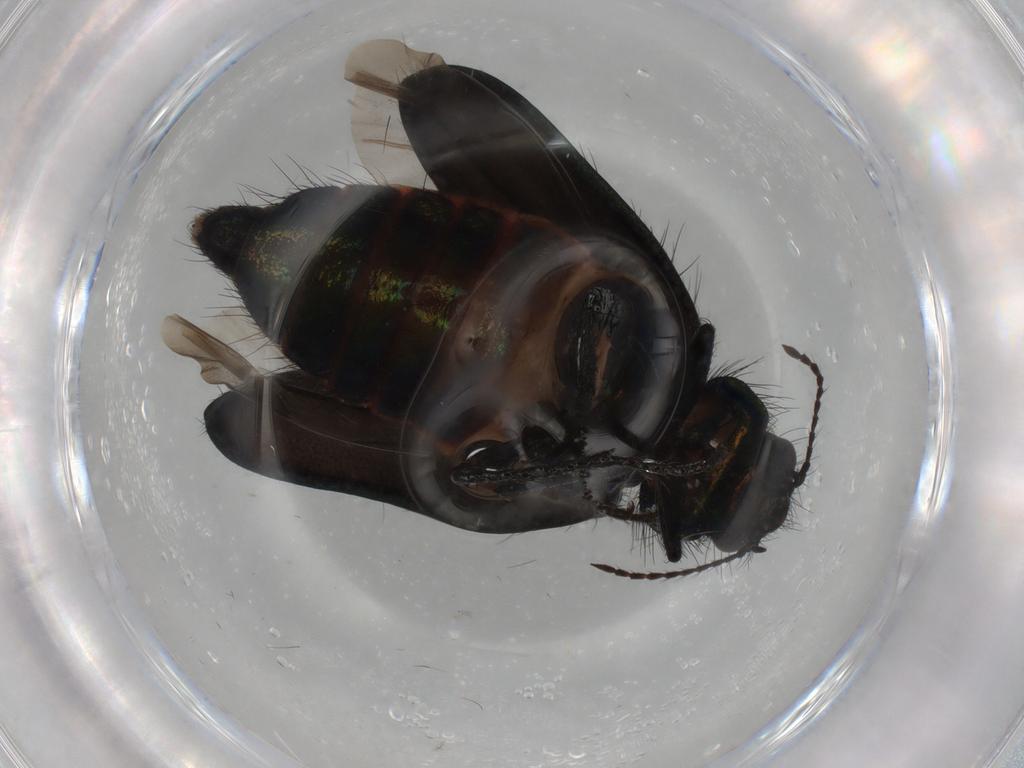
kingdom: Animalia
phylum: Arthropoda
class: Insecta
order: Coleoptera
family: Melyridae
